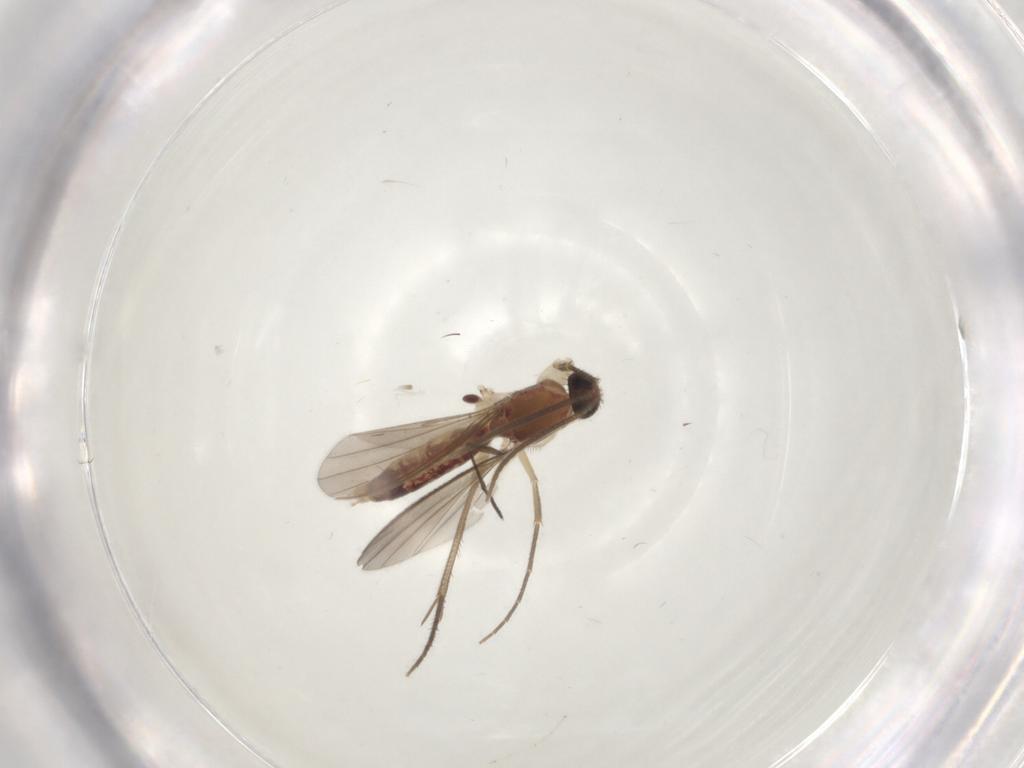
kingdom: Animalia
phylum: Arthropoda
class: Insecta
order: Diptera
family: Mycetophilidae
